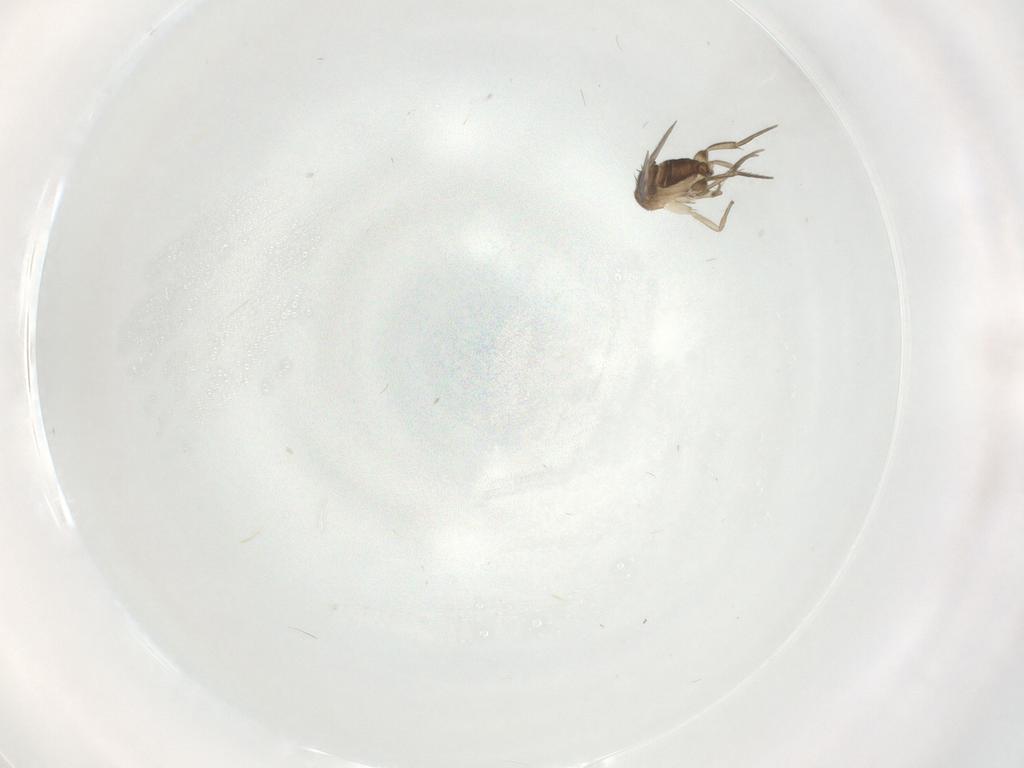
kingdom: Animalia
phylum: Arthropoda
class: Insecta
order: Diptera
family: Phoridae
